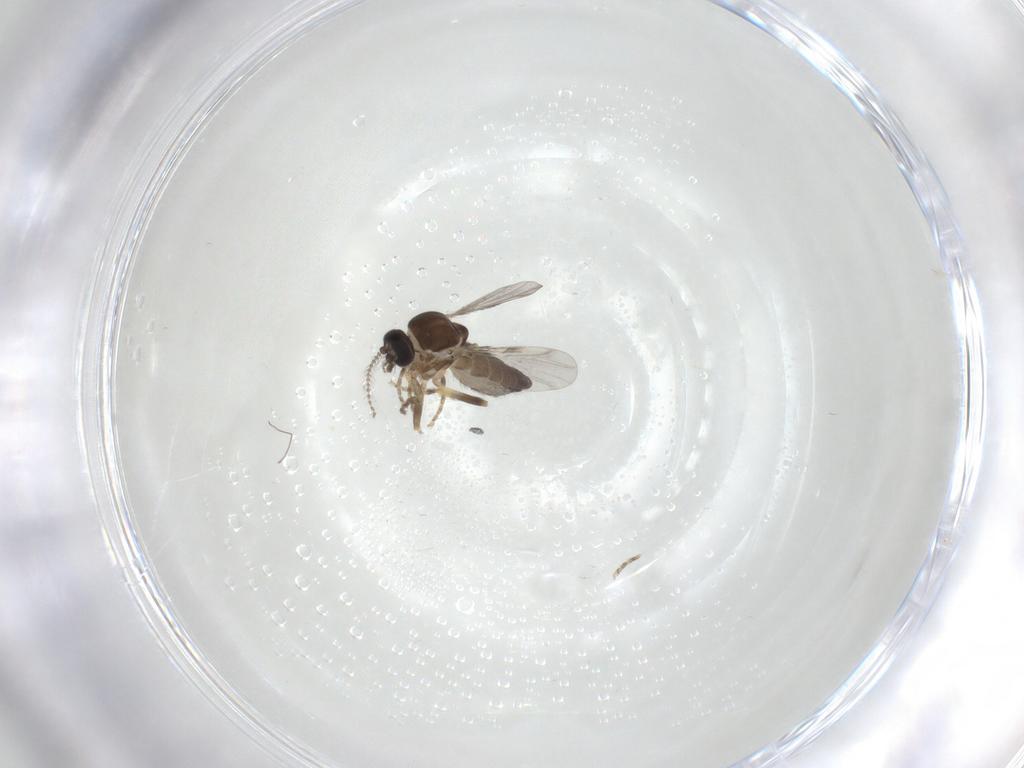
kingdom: Animalia
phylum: Arthropoda
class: Insecta
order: Diptera
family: Ceratopogonidae
